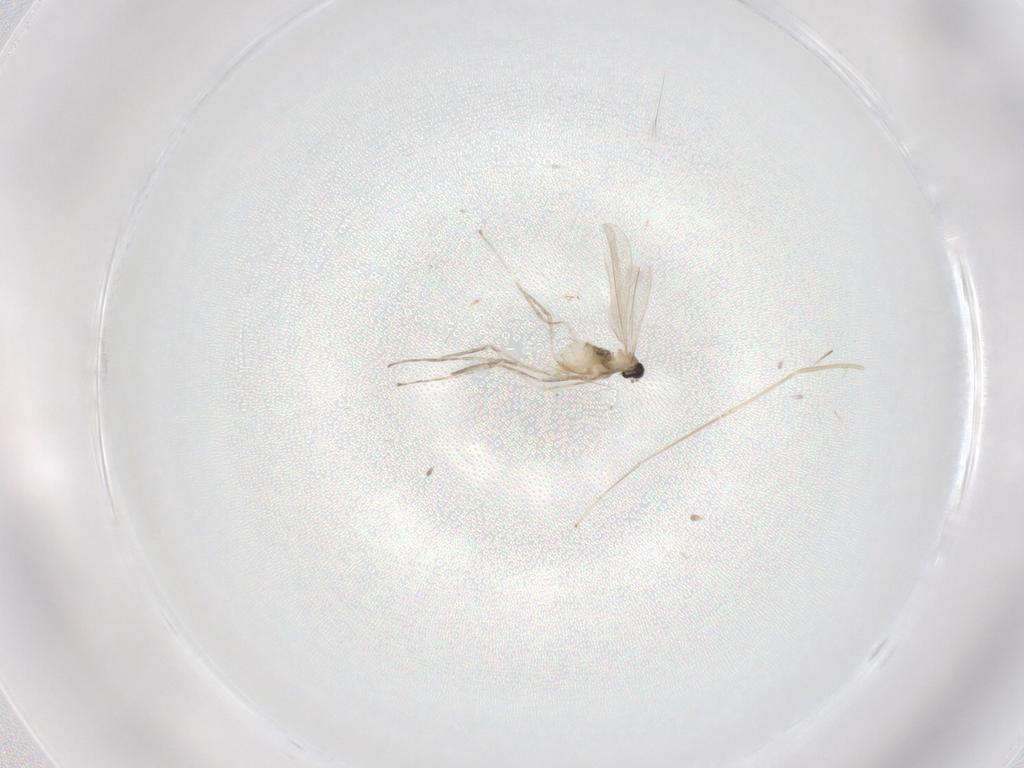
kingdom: Animalia
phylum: Arthropoda
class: Insecta
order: Diptera
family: Cecidomyiidae
